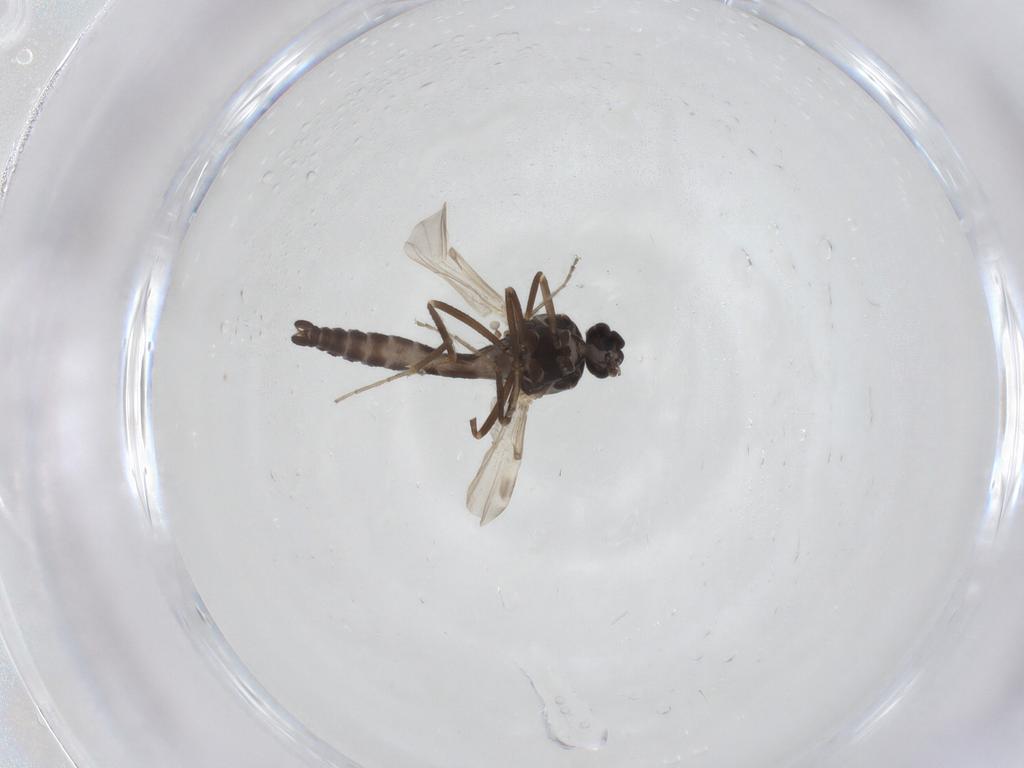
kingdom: Animalia
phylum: Arthropoda
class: Insecta
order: Diptera
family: Ceratopogonidae
